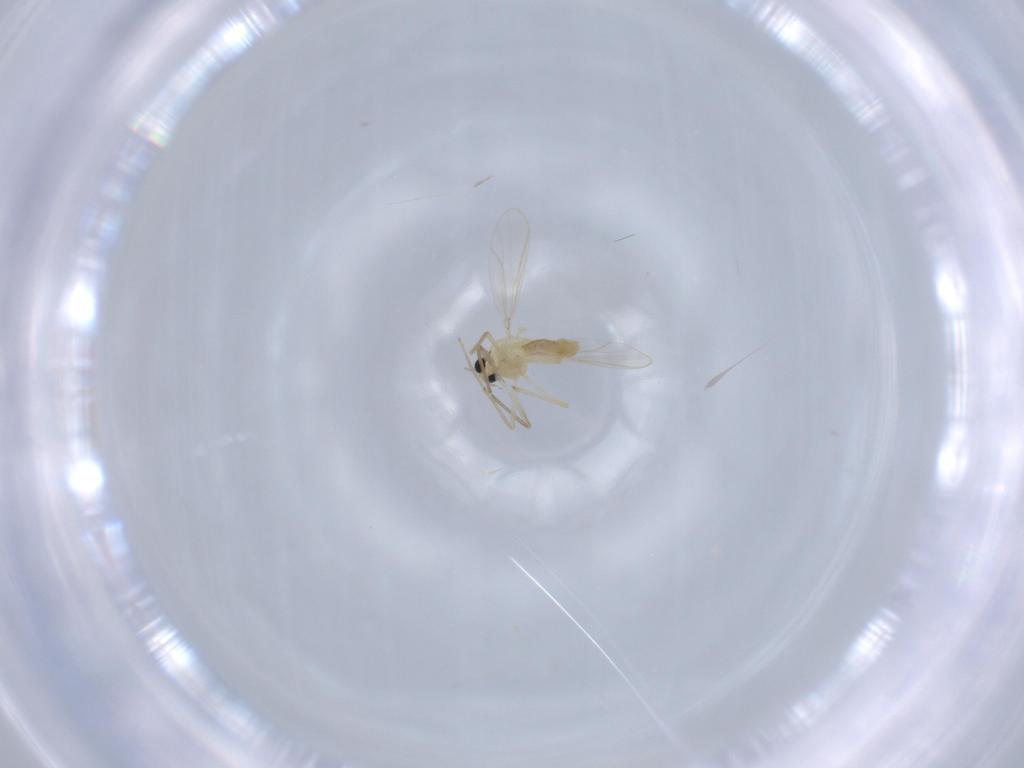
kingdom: Animalia
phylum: Arthropoda
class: Insecta
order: Diptera
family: Chironomidae
